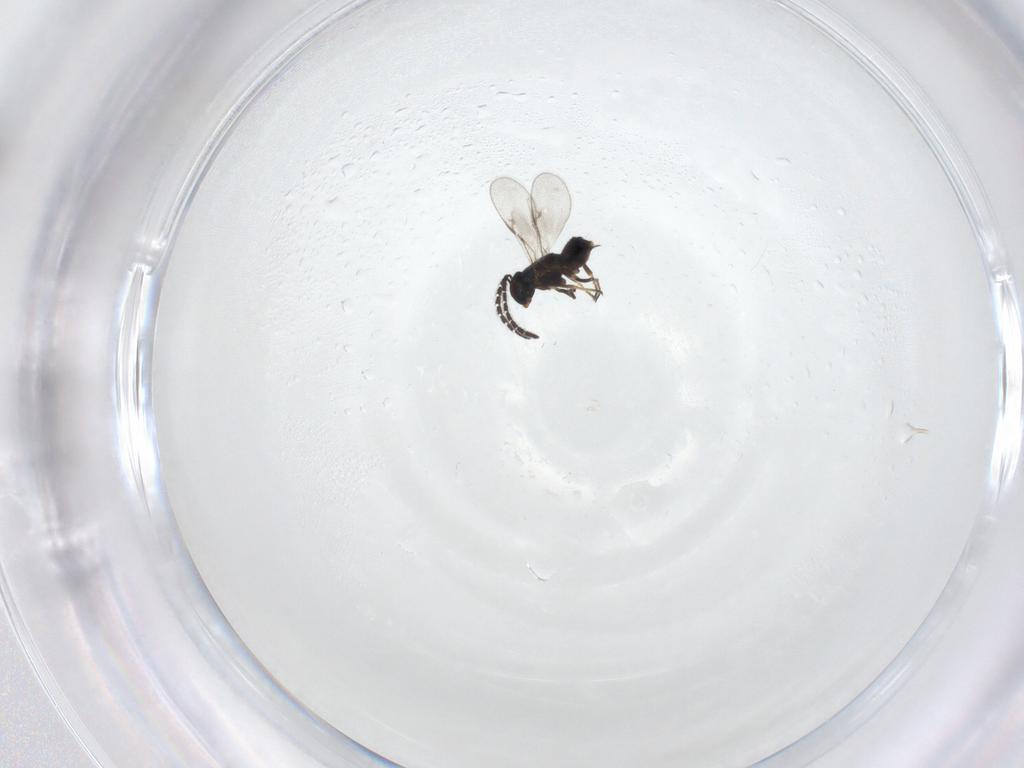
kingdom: Animalia
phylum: Arthropoda
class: Insecta
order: Hymenoptera
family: Encyrtidae
